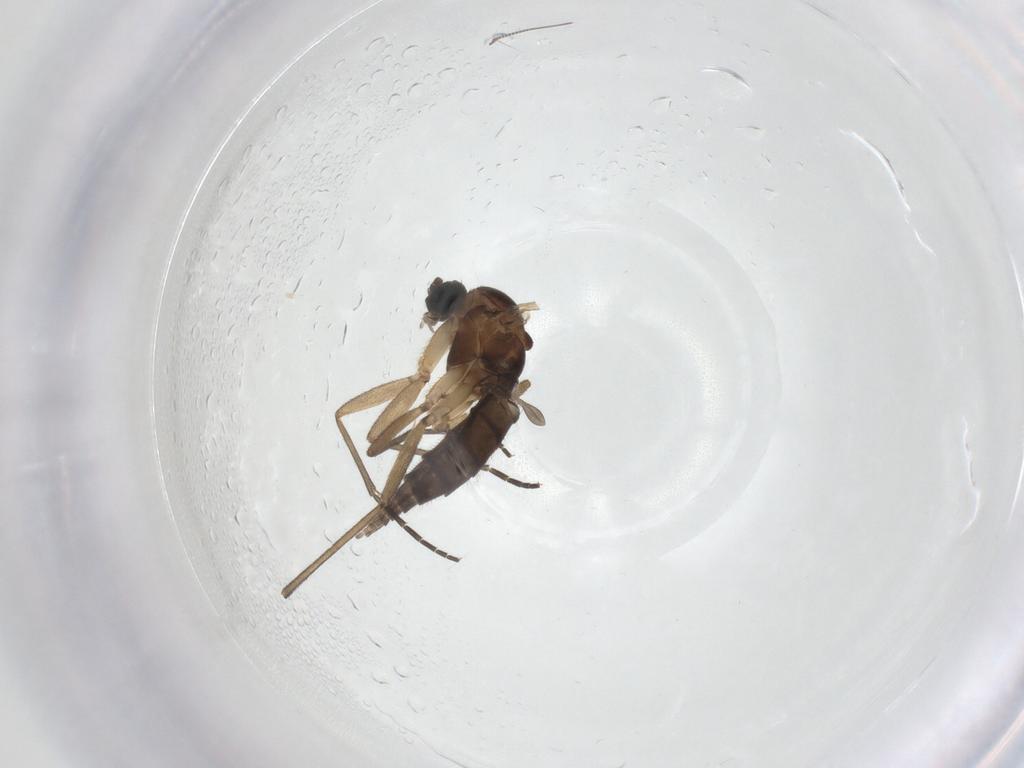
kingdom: Animalia
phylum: Arthropoda
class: Insecta
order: Diptera
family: Sciaridae
